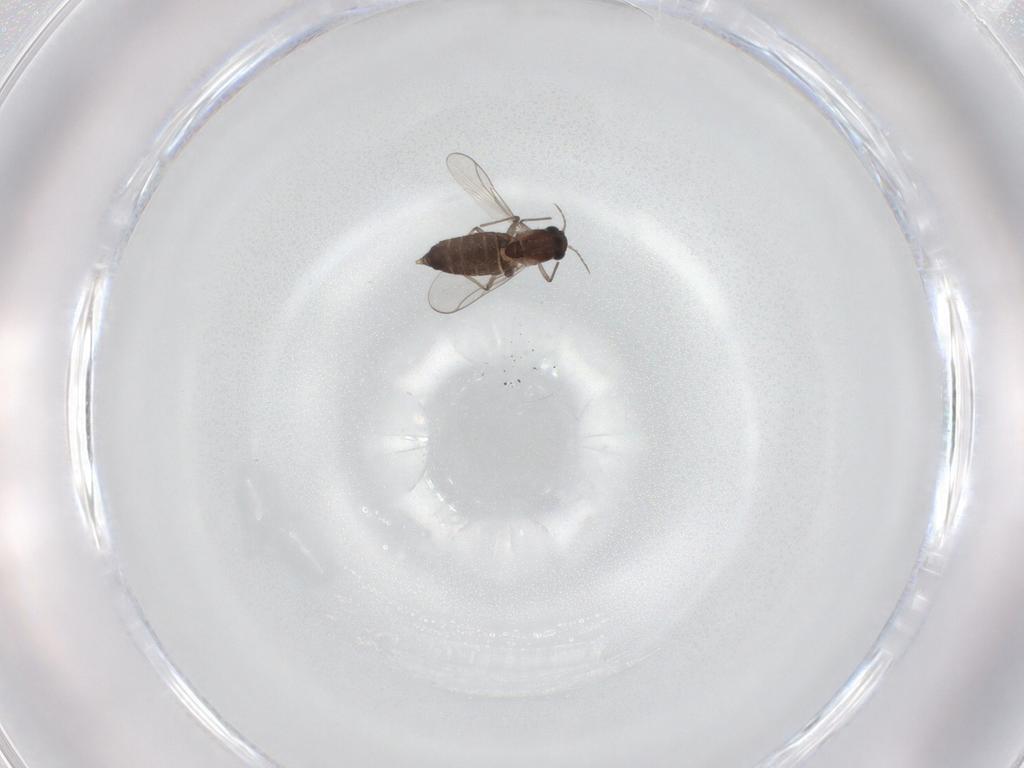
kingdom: Animalia
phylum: Arthropoda
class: Insecta
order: Diptera
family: Chironomidae
